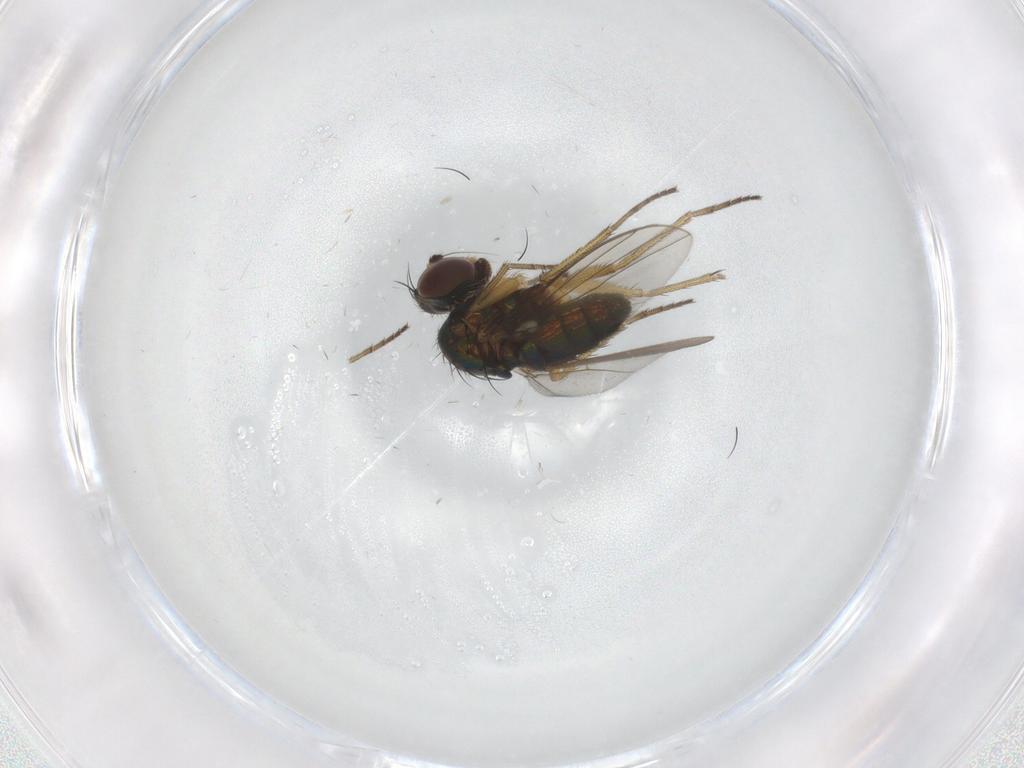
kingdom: Animalia
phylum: Arthropoda
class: Insecta
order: Diptera
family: Dolichopodidae
